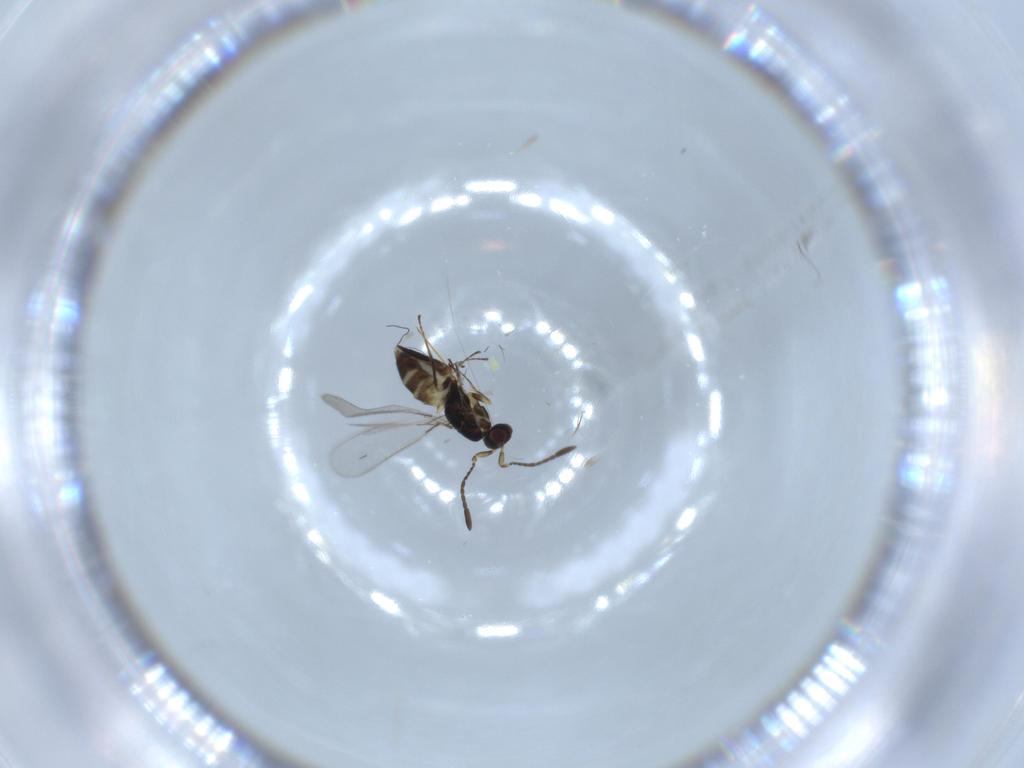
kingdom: Animalia
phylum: Arthropoda
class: Insecta
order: Hymenoptera
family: Mymaridae
